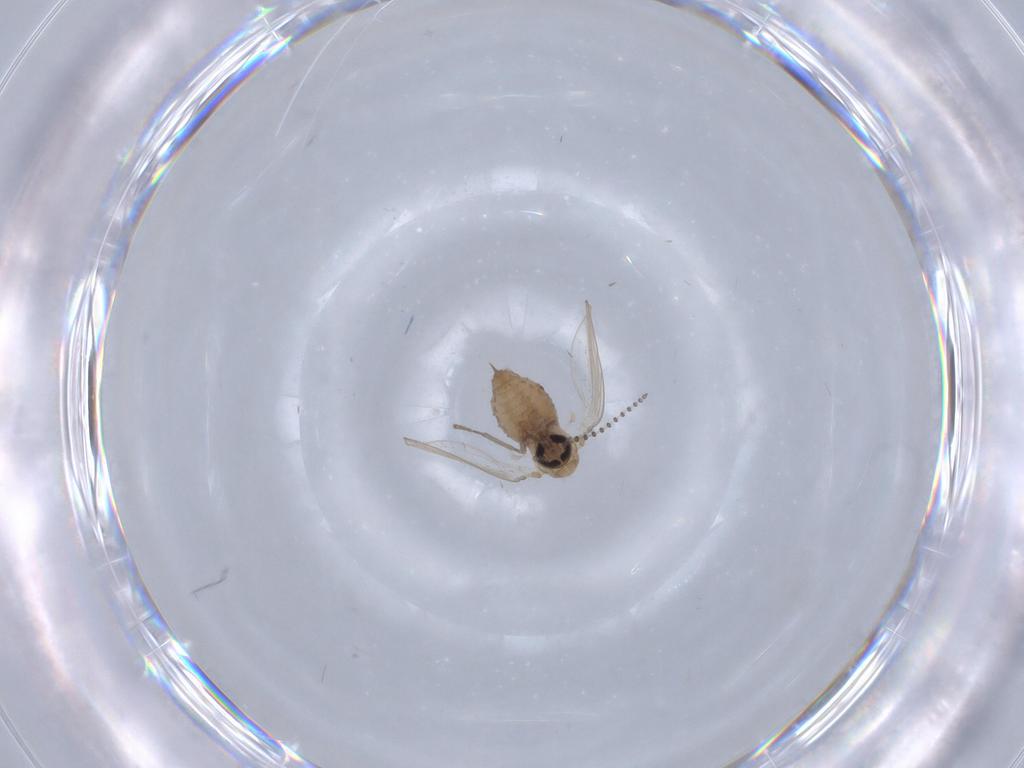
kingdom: Animalia
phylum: Arthropoda
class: Insecta
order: Diptera
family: Psychodidae
